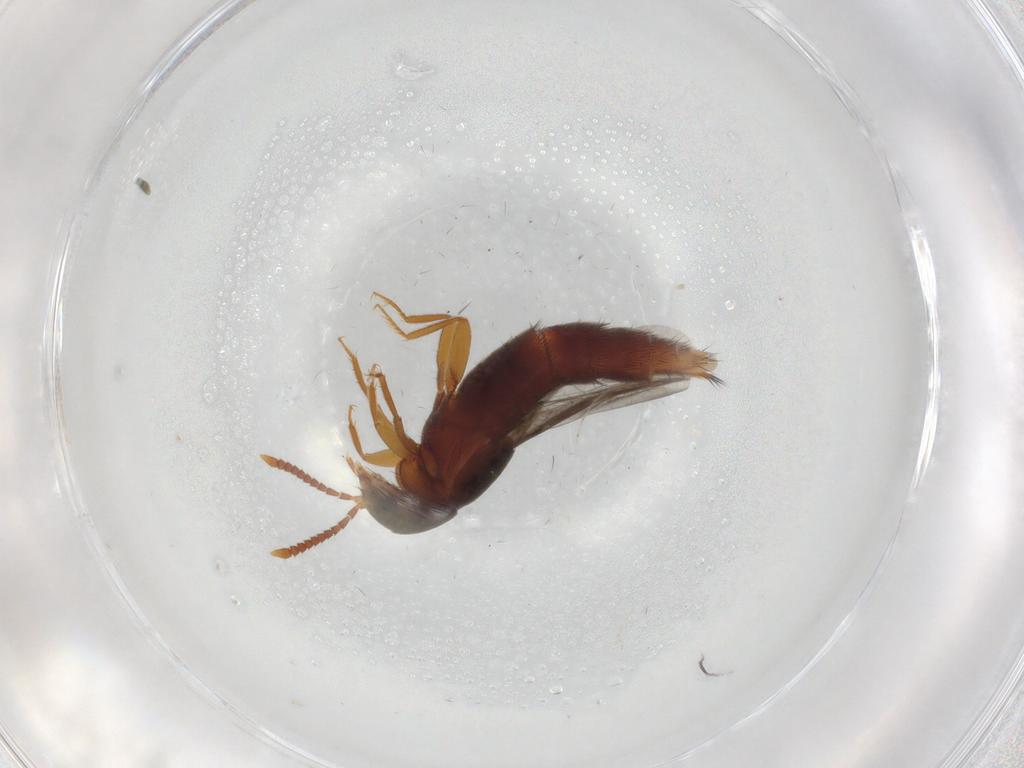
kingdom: Animalia
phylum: Arthropoda
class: Insecta
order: Coleoptera
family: Staphylinidae
